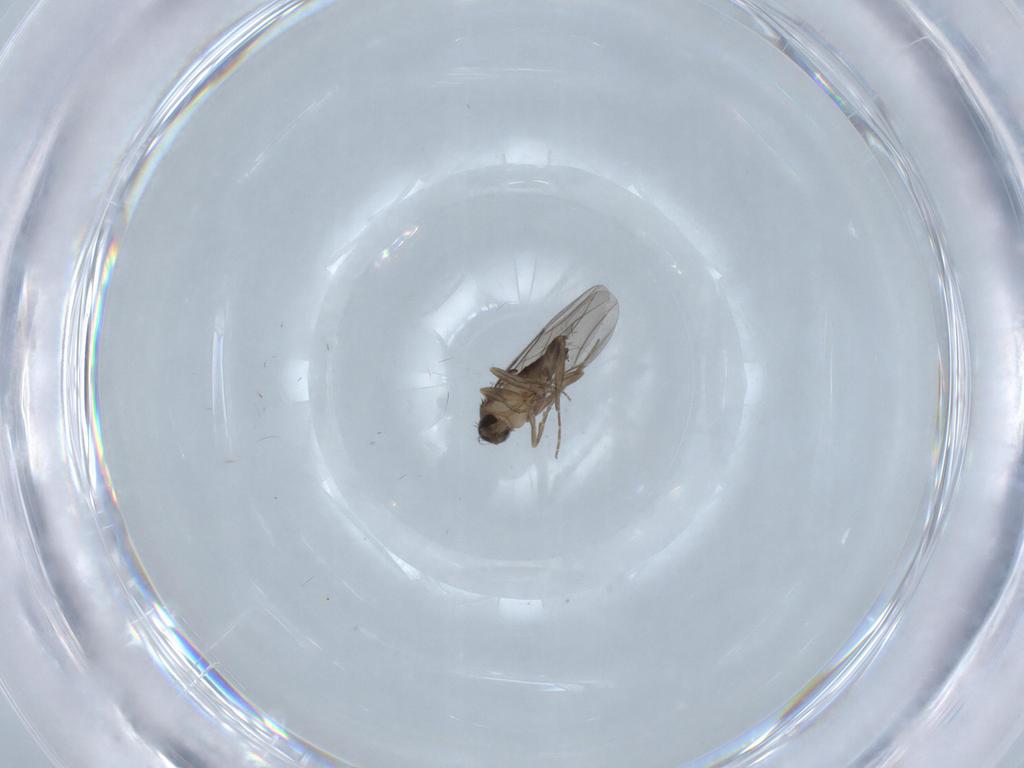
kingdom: Animalia
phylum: Arthropoda
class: Insecta
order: Diptera
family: Phoridae
